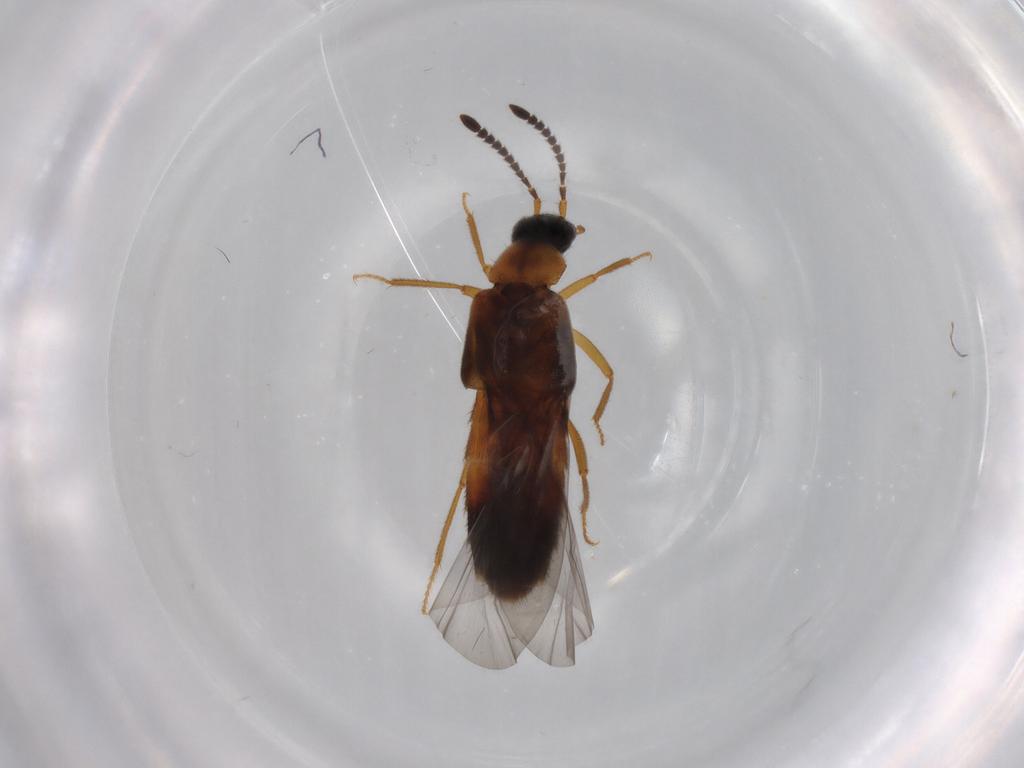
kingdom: Animalia
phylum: Arthropoda
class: Insecta
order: Coleoptera
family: Staphylinidae
